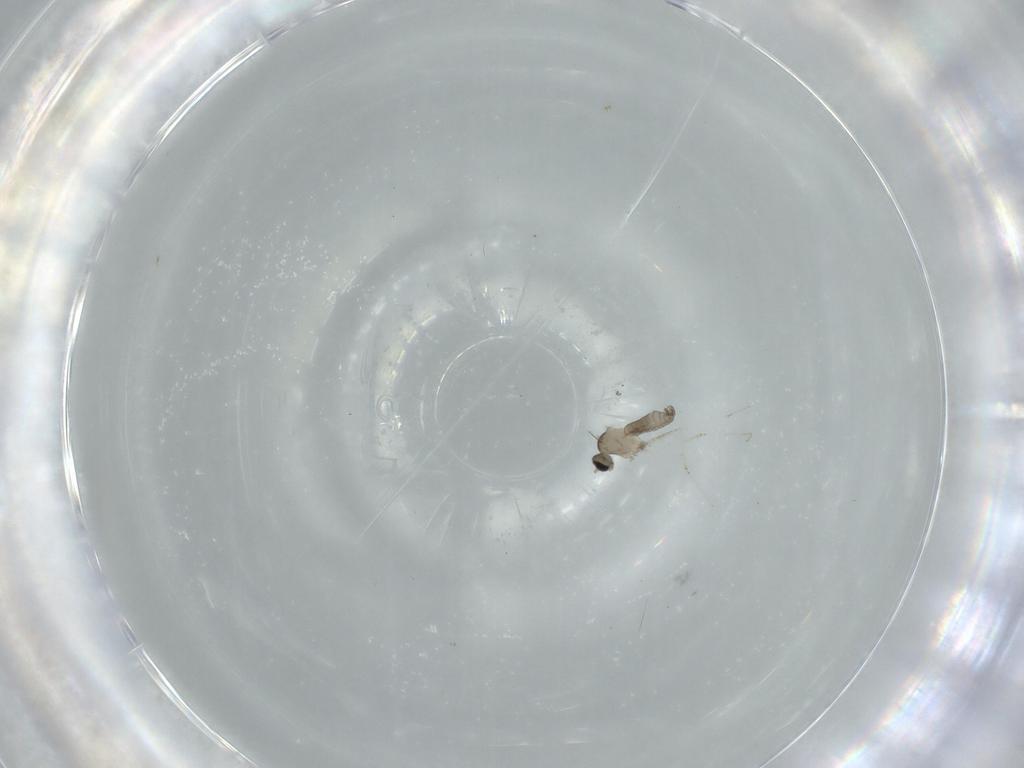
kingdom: Animalia
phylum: Arthropoda
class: Insecta
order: Diptera
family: Cecidomyiidae
